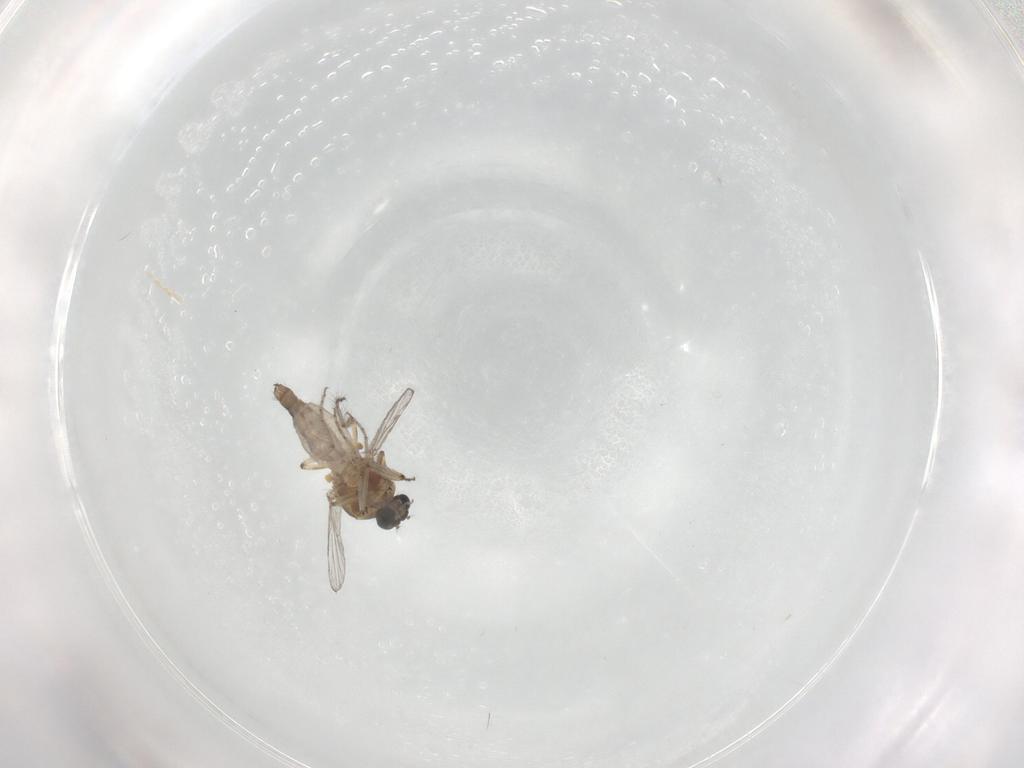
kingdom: Animalia
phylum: Arthropoda
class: Insecta
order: Diptera
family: Ceratopogonidae
